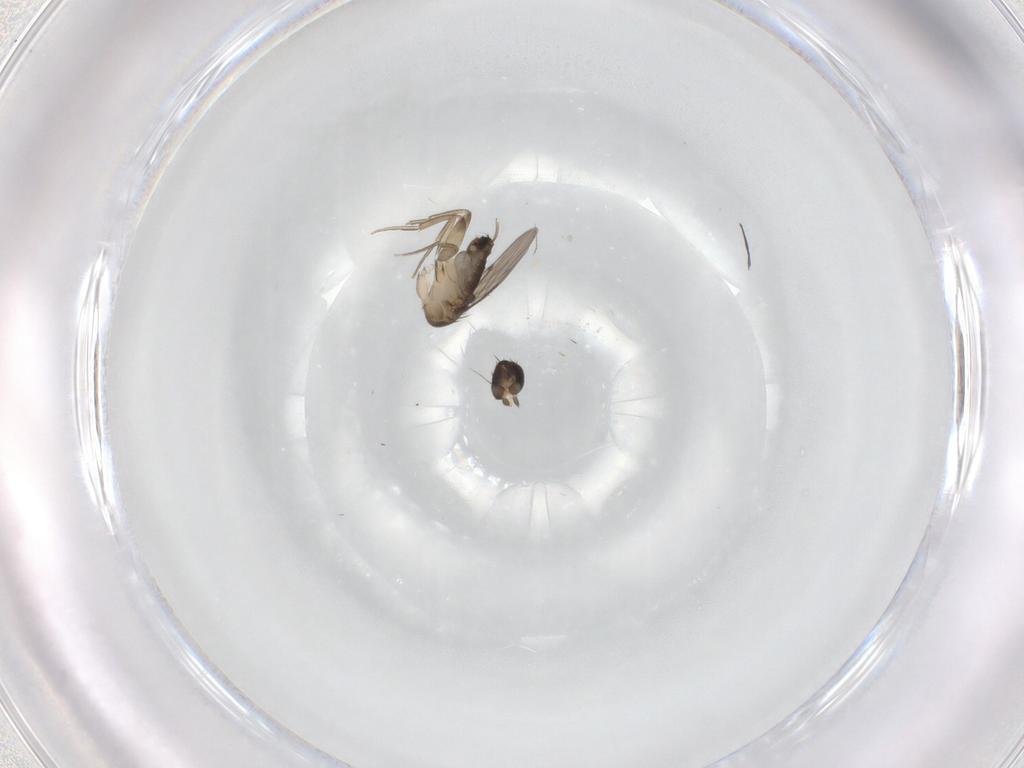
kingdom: Animalia
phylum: Arthropoda
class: Insecta
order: Diptera
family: Phoridae
